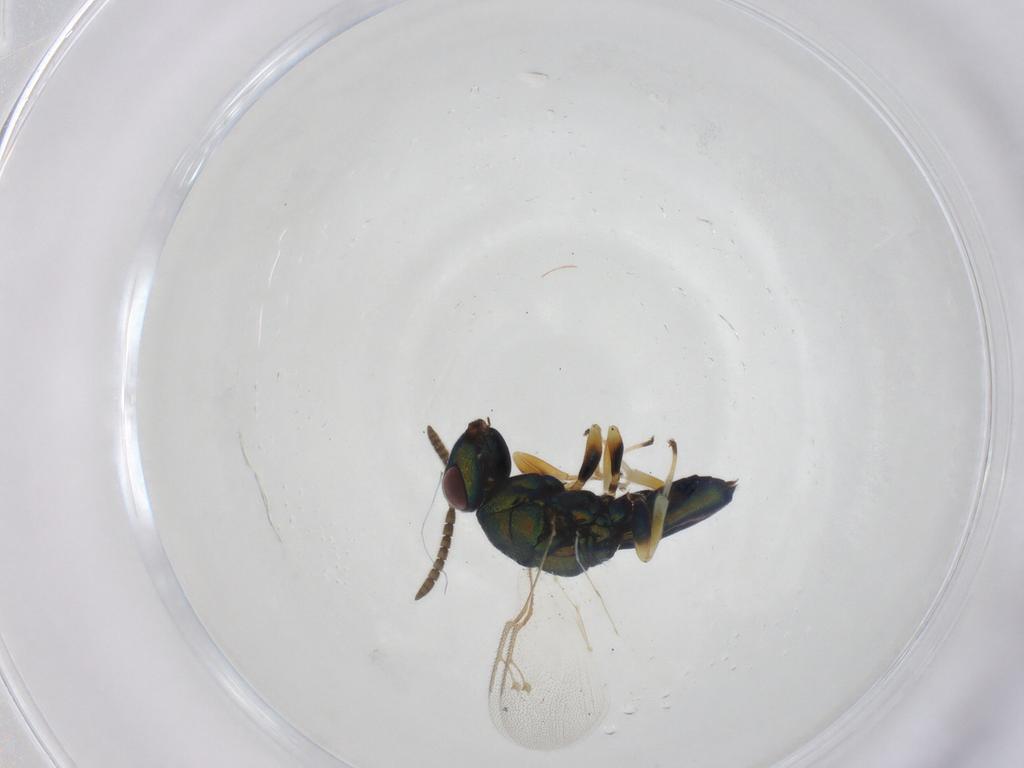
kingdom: Animalia
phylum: Arthropoda
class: Insecta
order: Hymenoptera
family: Pteromalidae
